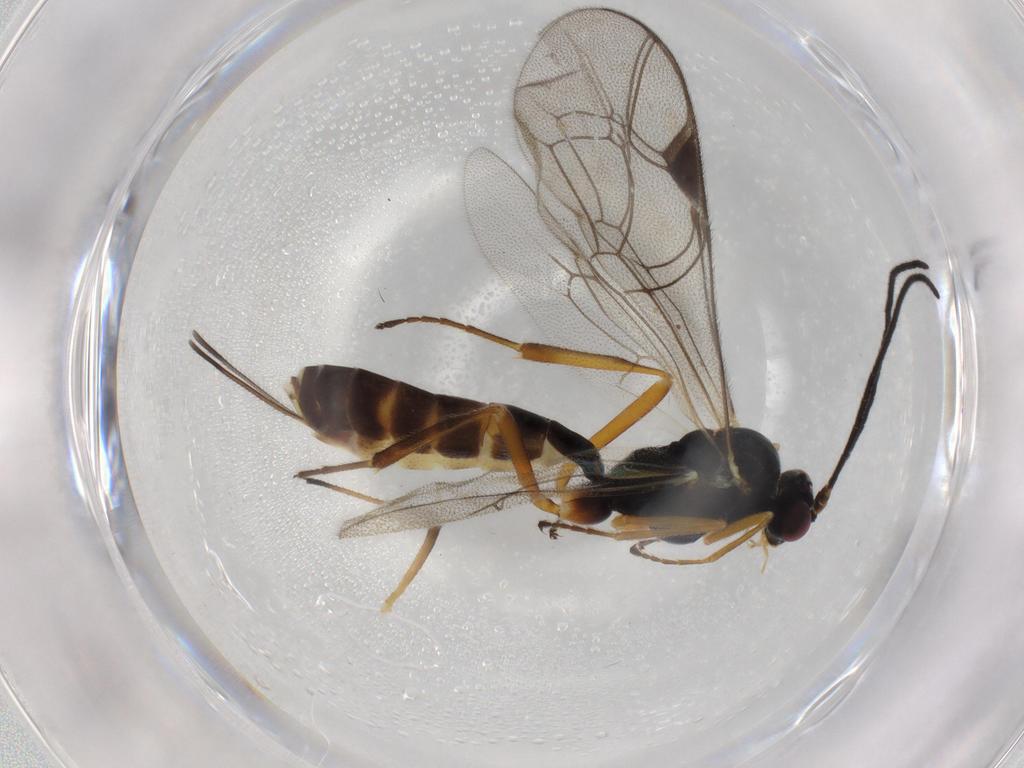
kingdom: Animalia
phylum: Arthropoda
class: Insecta
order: Hymenoptera
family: Ichneumonidae
